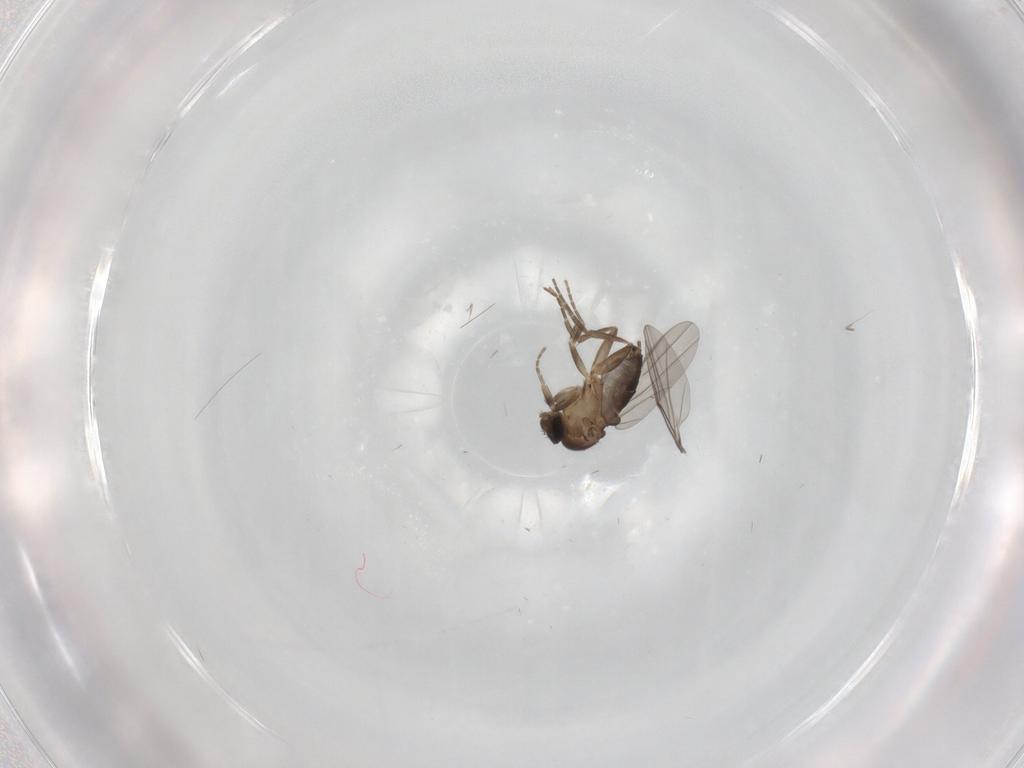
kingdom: Animalia
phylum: Arthropoda
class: Insecta
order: Diptera
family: Phoridae
